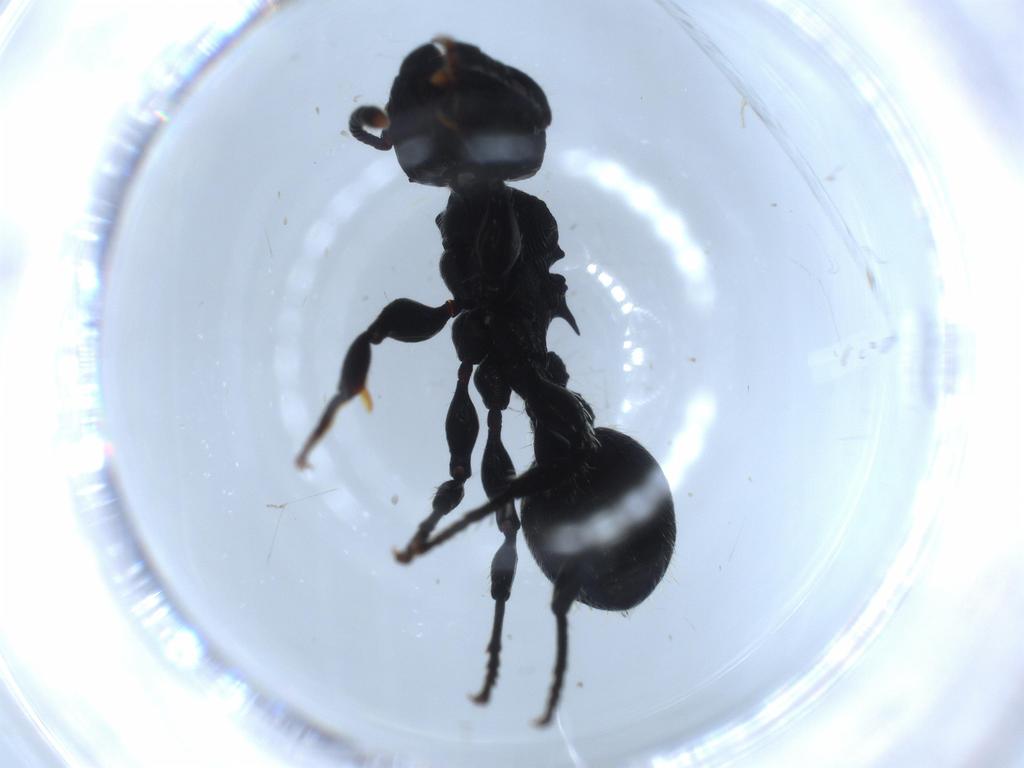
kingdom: Animalia
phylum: Arthropoda
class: Insecta
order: Hymenoptera
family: Formicidae
